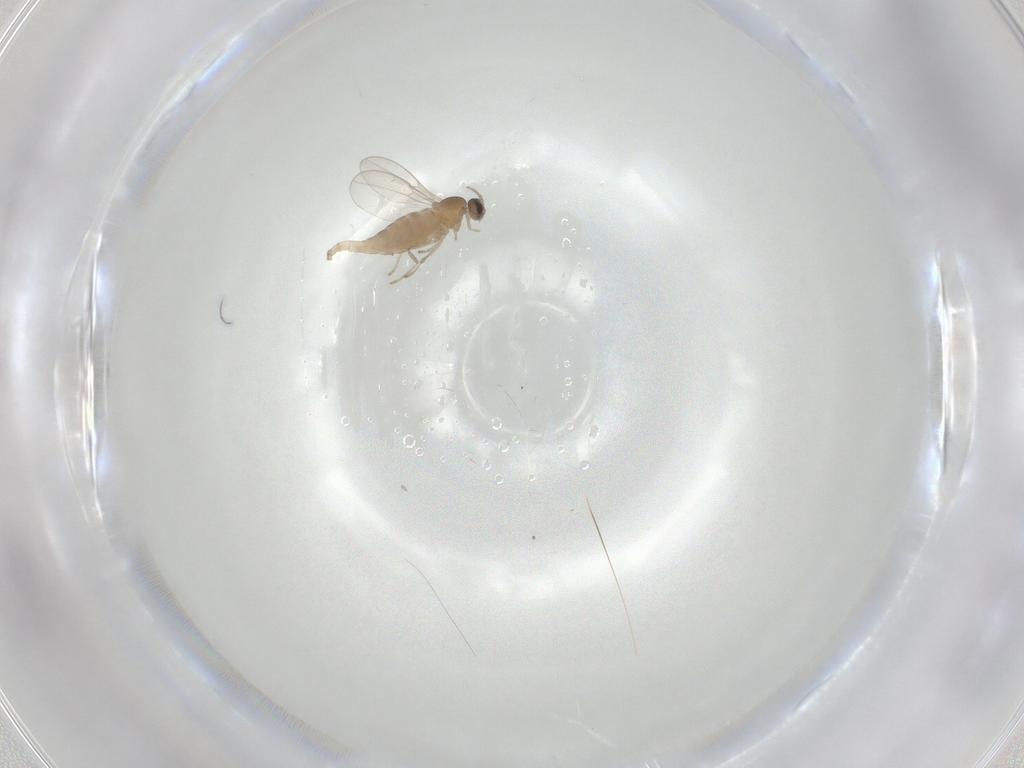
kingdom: Animalia
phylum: Arthropoda
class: Insecta
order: Diptera
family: Cecidomyiidae
